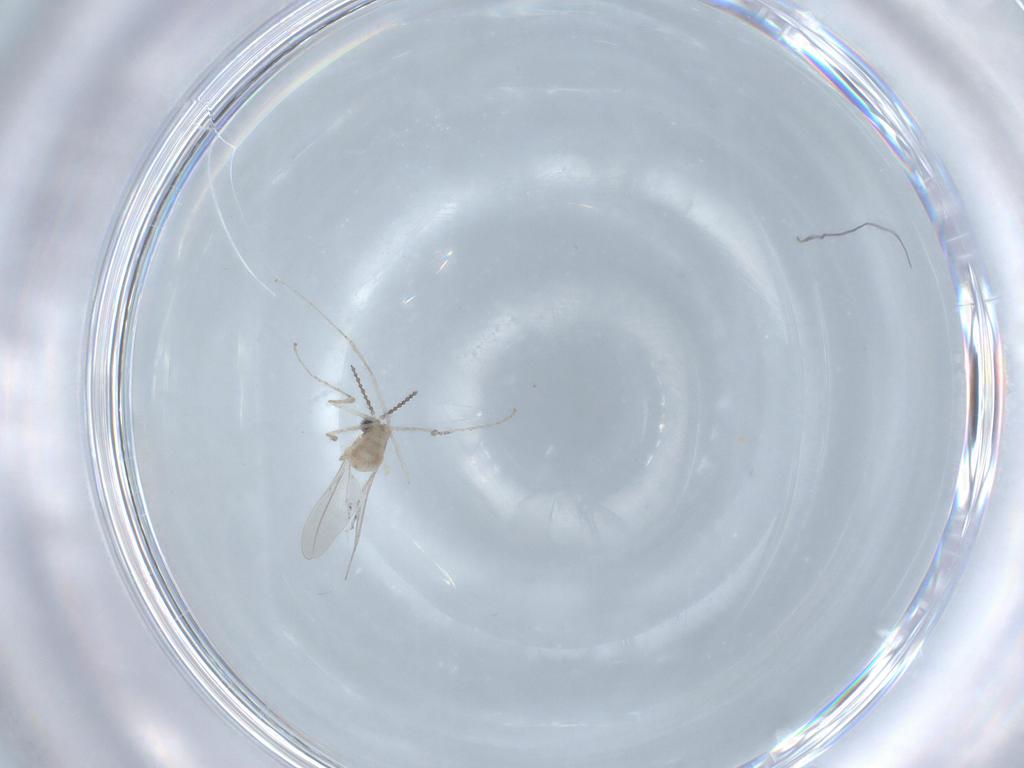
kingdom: Animalia
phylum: Arthropoda
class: Insecta
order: Diptera
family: Cecidomyiidae
